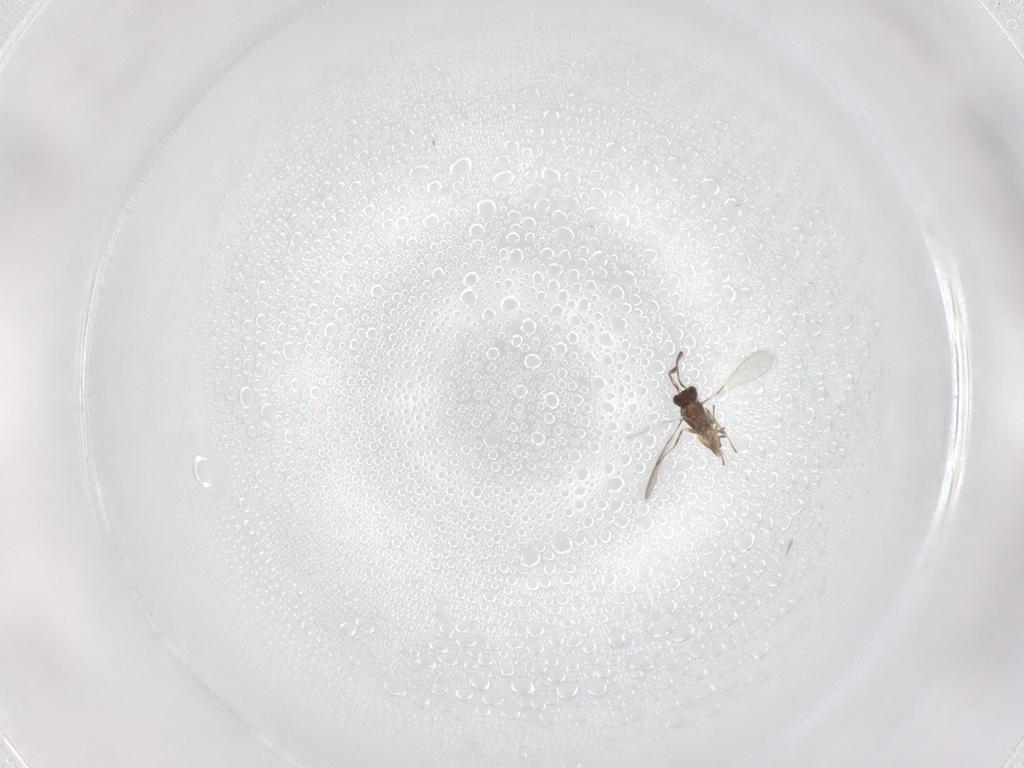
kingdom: Animalia
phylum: Arthropoda
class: Insecta
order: Hymenoptera
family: Mymaridae
